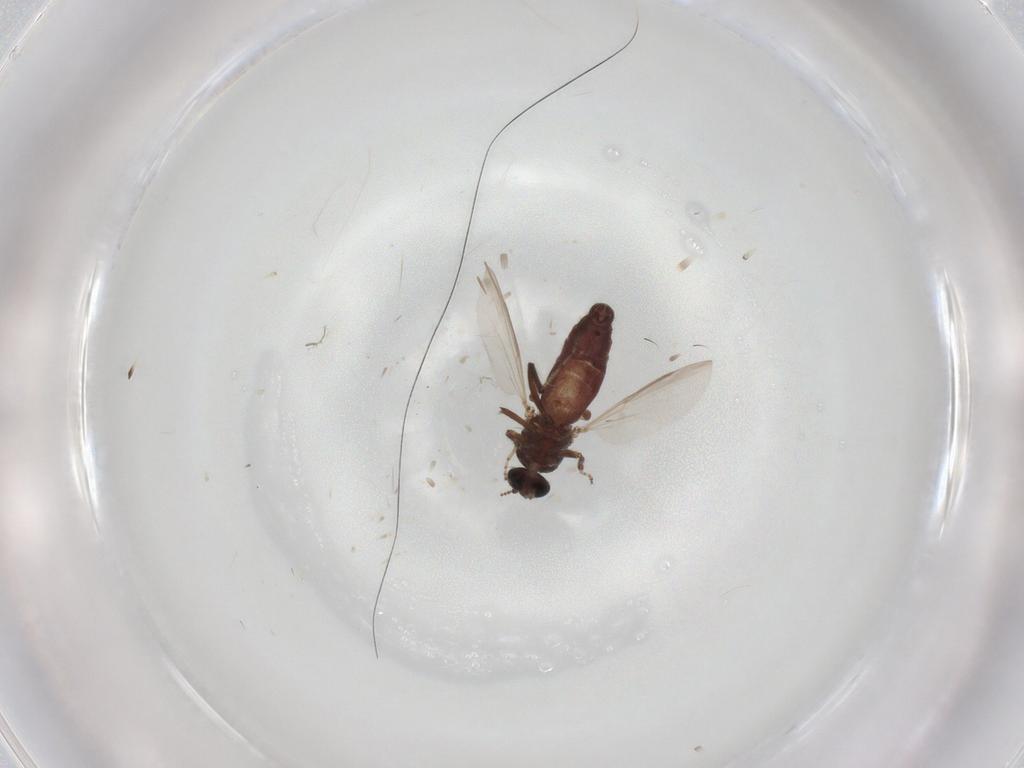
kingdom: Animalia
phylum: Arthropoda
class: Insecta
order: Diptera
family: Ceratopogonidae
